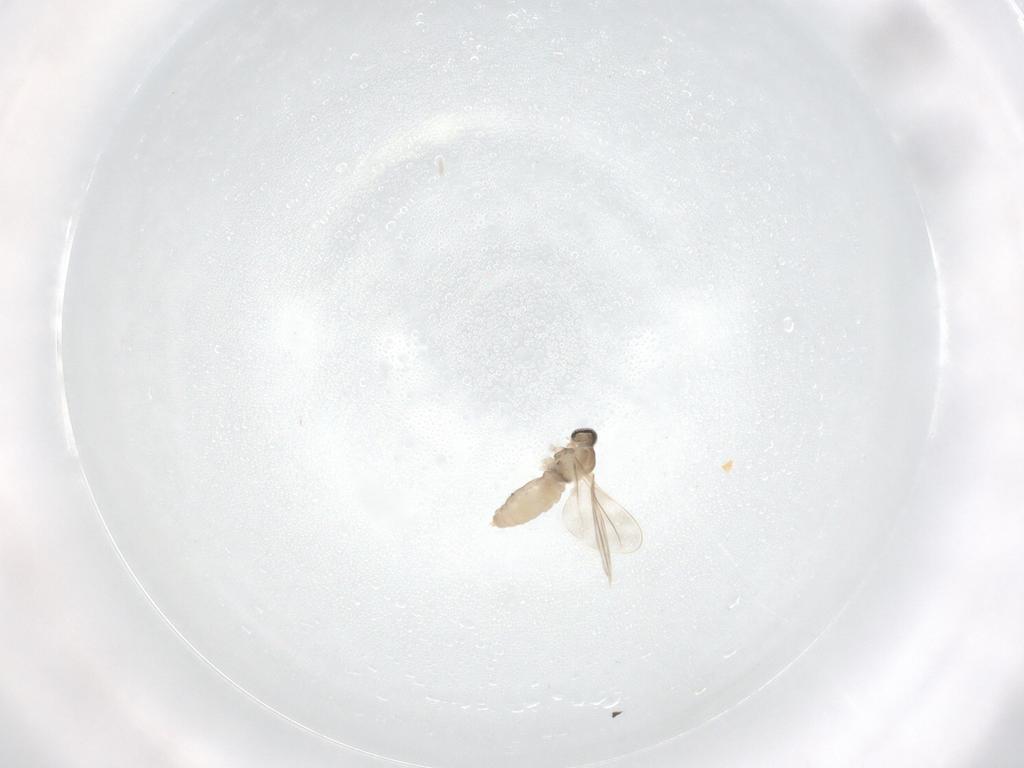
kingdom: Animalia
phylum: Arthropoda
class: Insecta
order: Diptera
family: Cecidomyiidae
